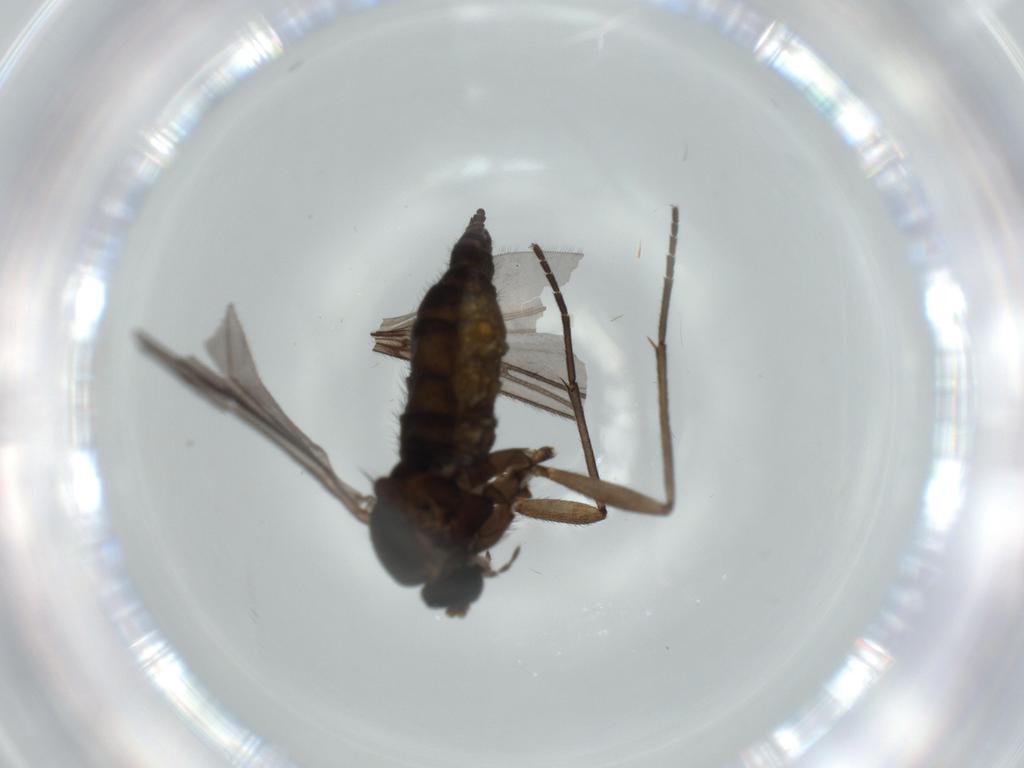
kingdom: Animalia
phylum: Arthropoda
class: Insecta
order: Diptera
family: Sciaridae
